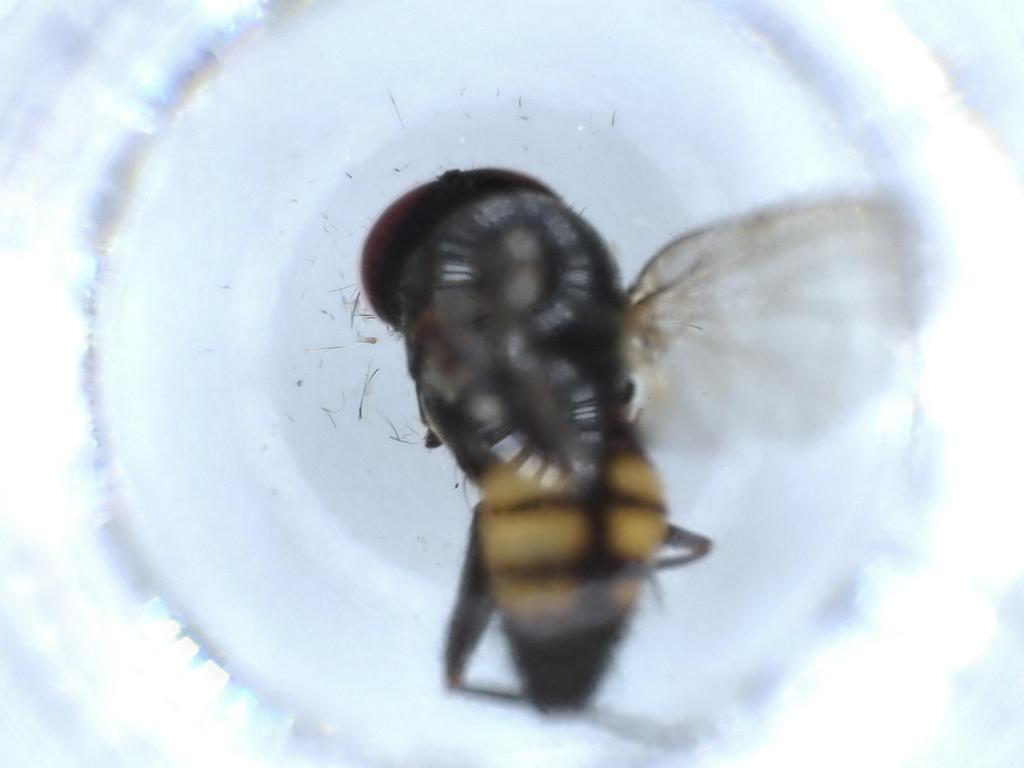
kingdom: Animalia
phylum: Arthropoda
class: Insecta
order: Diptera
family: Fannia
